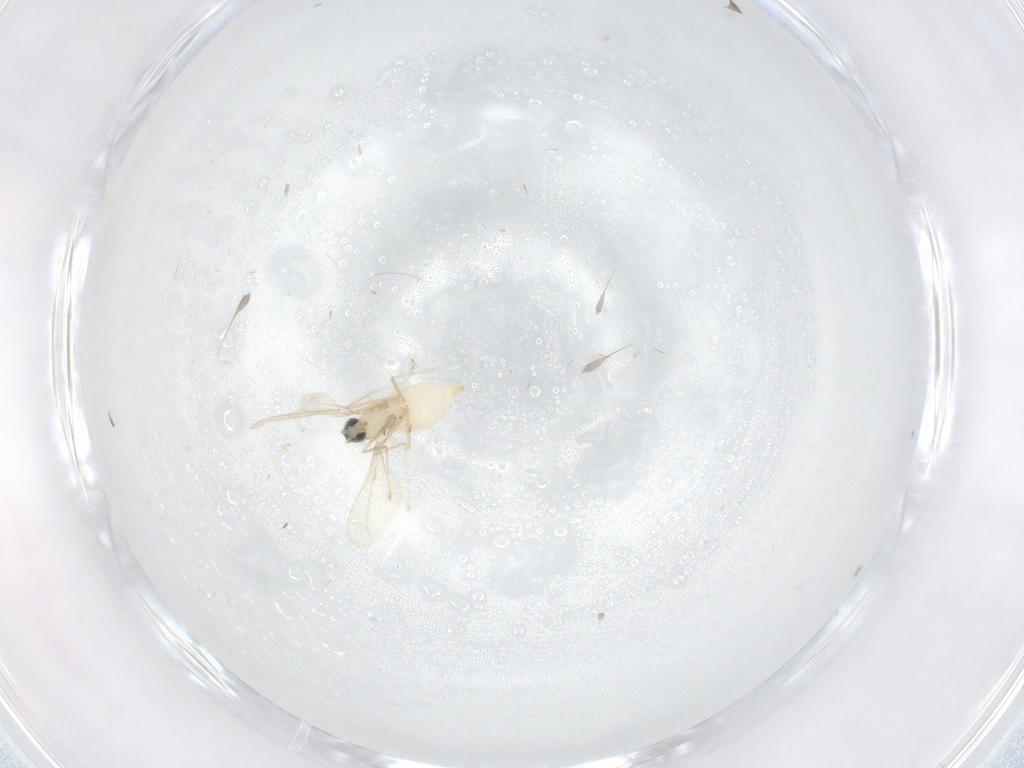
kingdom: Animalia
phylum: Arthropoda
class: Insecta
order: Diptera
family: Cecidomyiidae
